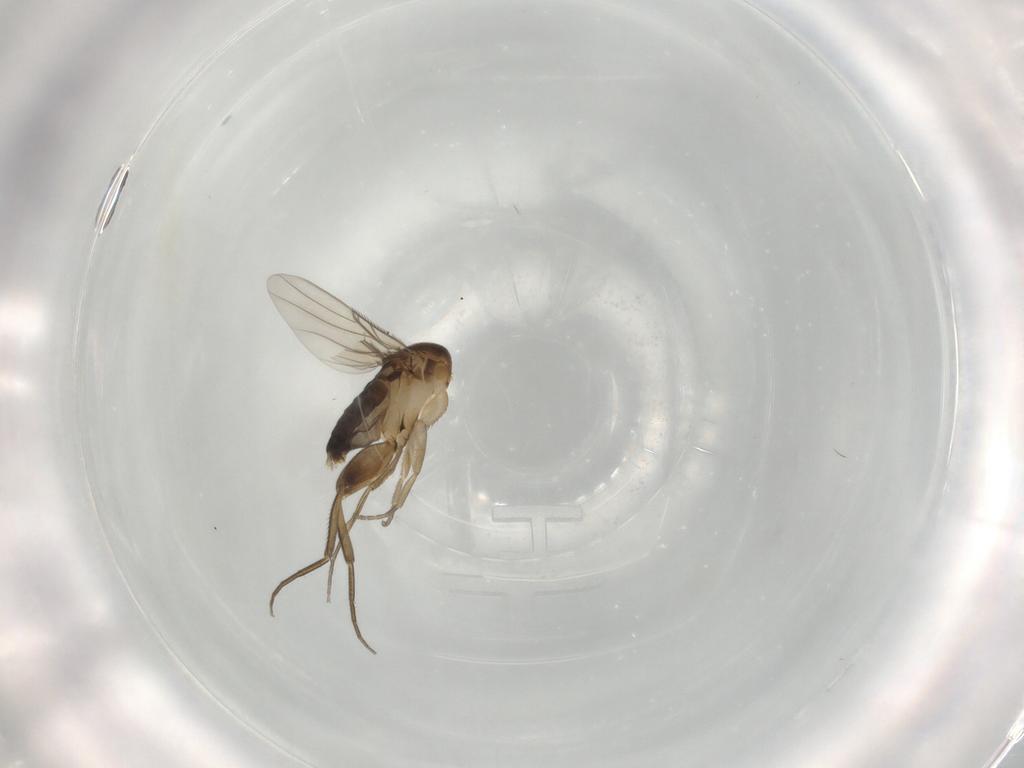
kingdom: Animalia
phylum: Arthropoda
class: Insecta
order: Diptera
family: Phoridae
